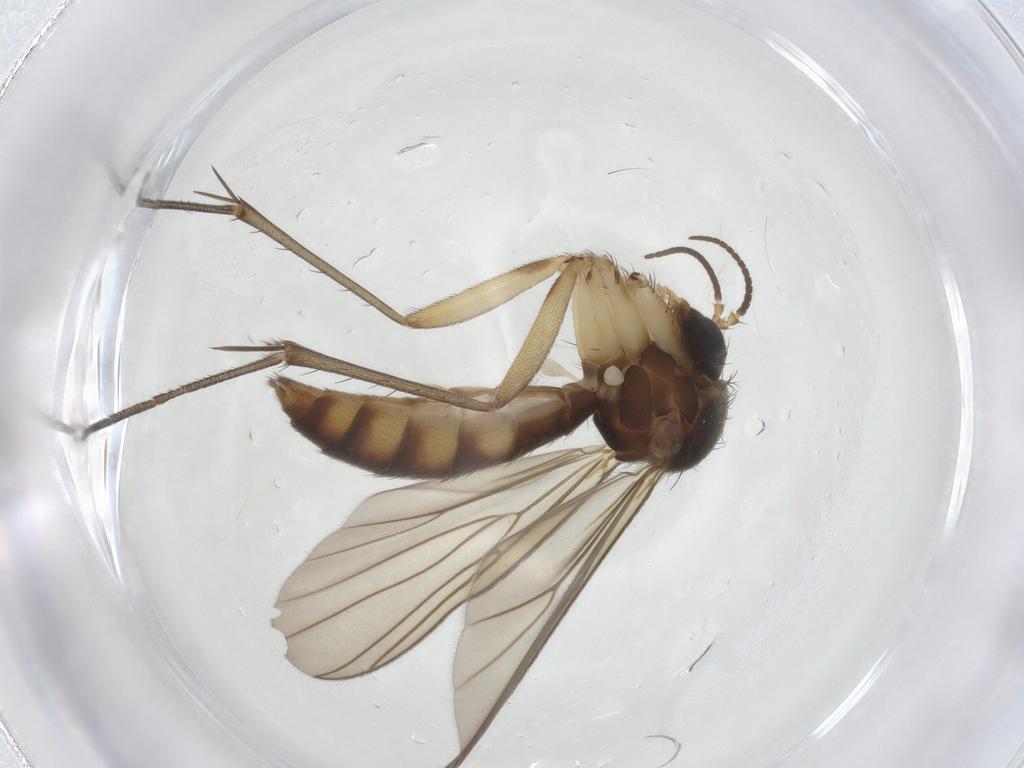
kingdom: Animalia
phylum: Arthropoda
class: Insecta
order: Diptera
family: Mycetophilidae
